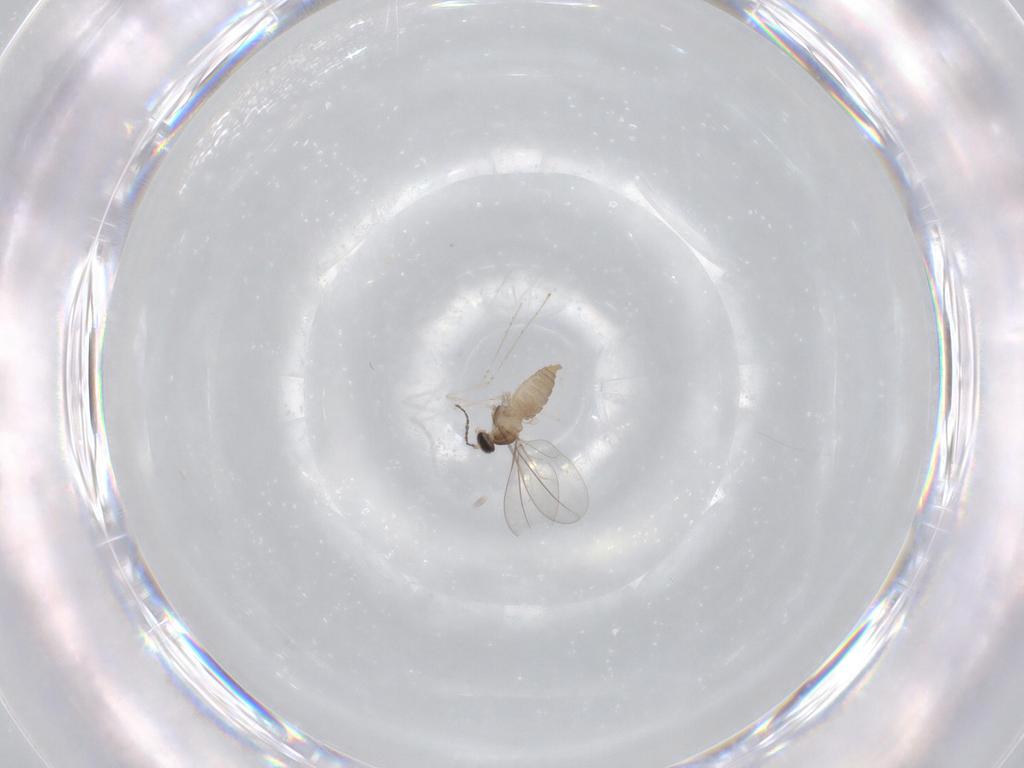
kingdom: Animalia
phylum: Arthropoda
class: Insecta
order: Diptera
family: Cecidomyiidae
